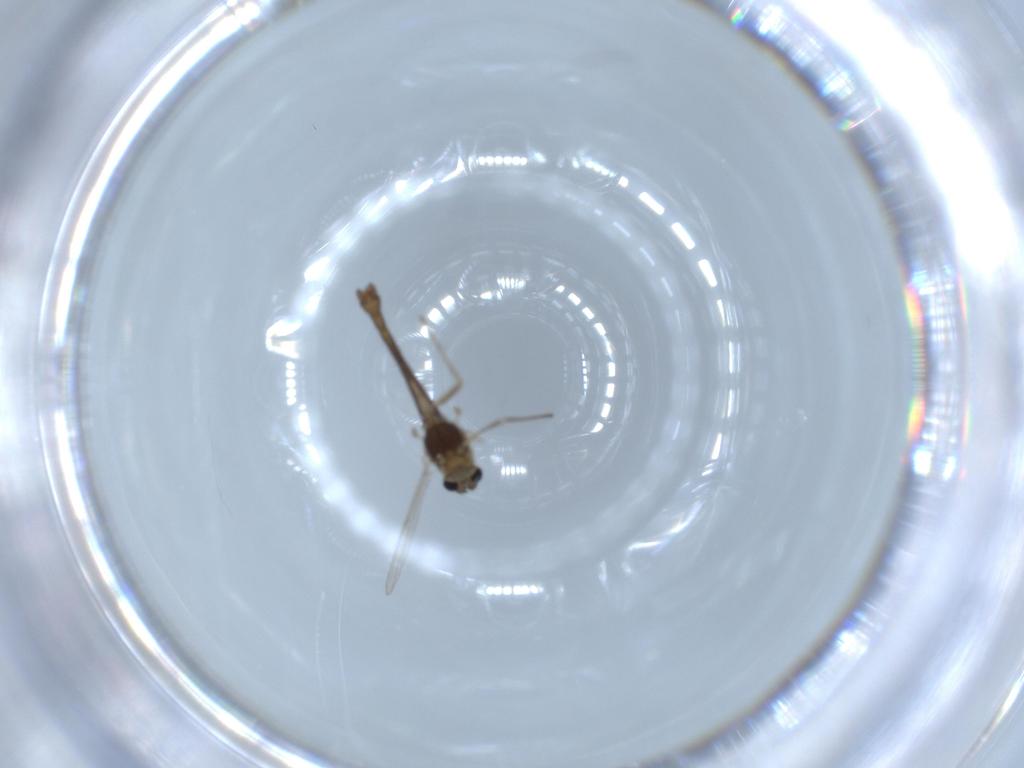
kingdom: Animalia
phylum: Arthropoda
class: Insecta
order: Diptera
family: Chironomidae
